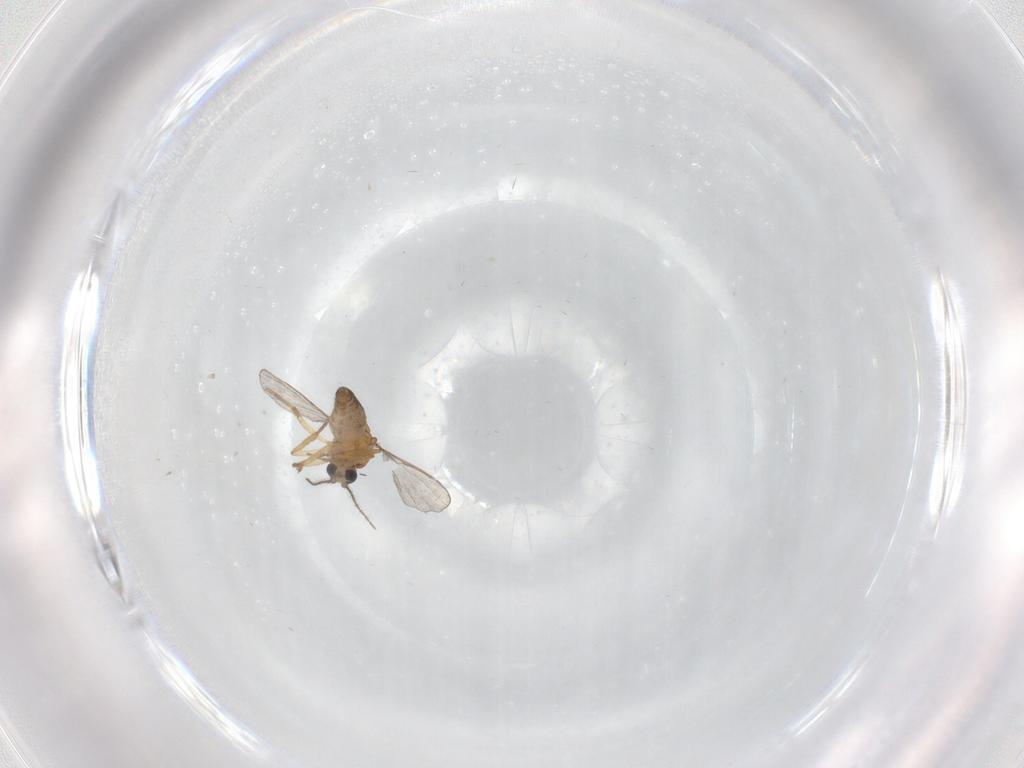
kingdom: Animalia
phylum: Arthropoda
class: Insecta
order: Diptera
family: Ceratopogonidae
